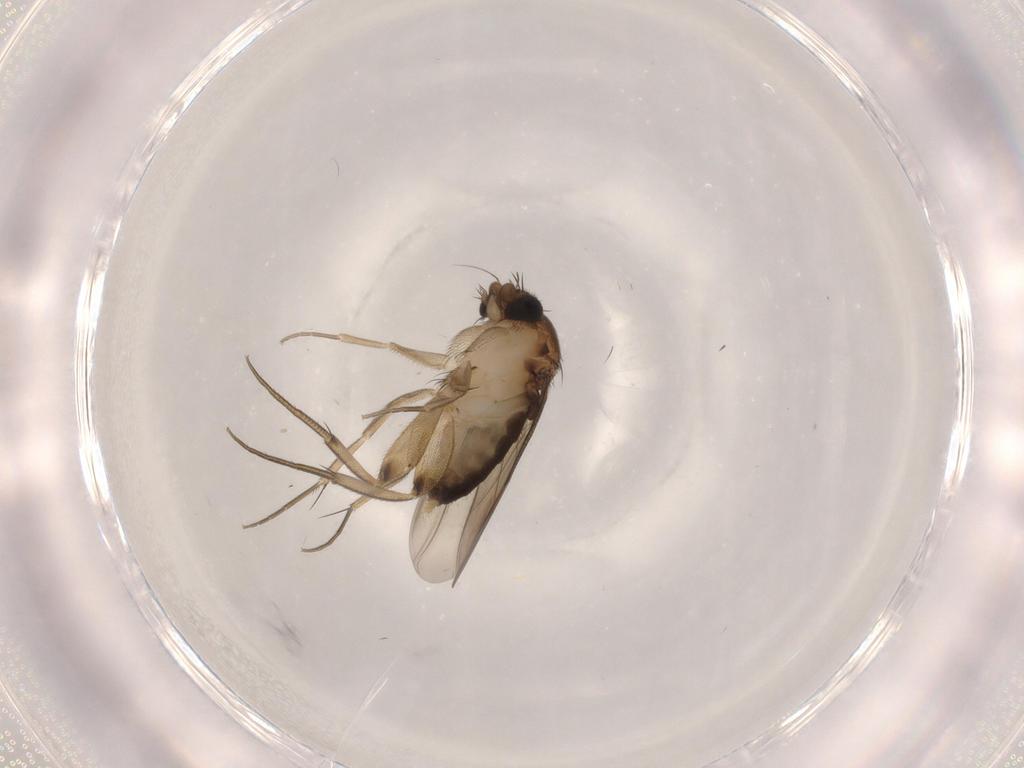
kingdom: Animalia
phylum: Arthropoda
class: Insecta
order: Diptera
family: Phoridae
